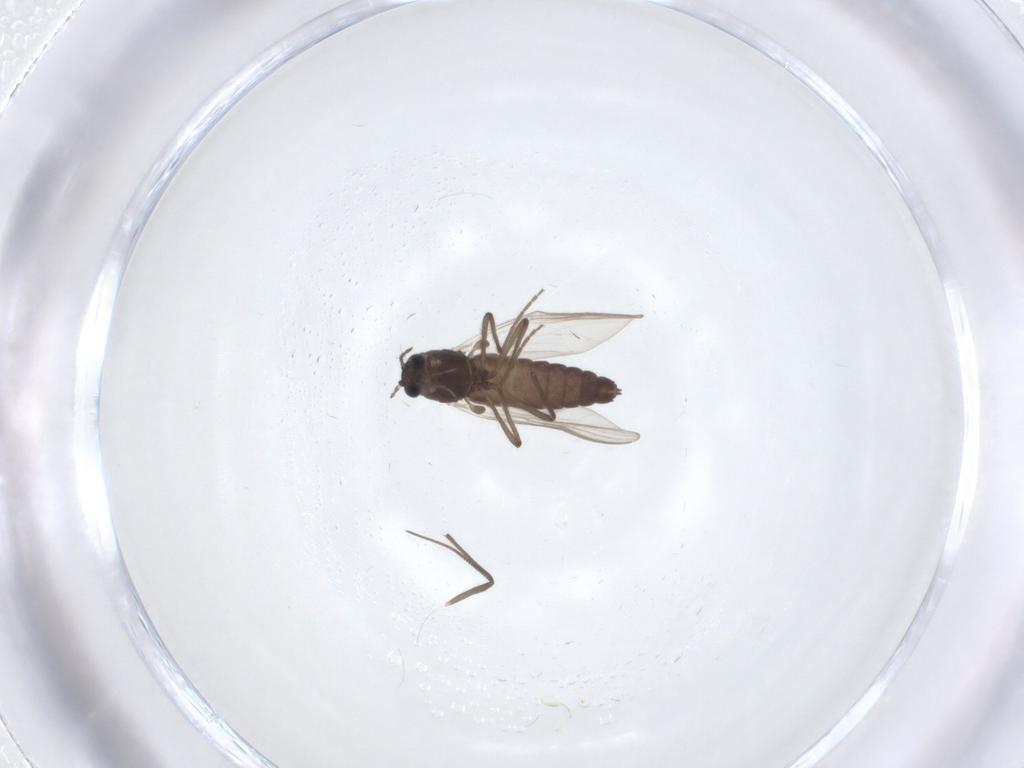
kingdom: Animalia
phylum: Arthropoda
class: Insecta
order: Diptera
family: Chironomidae
